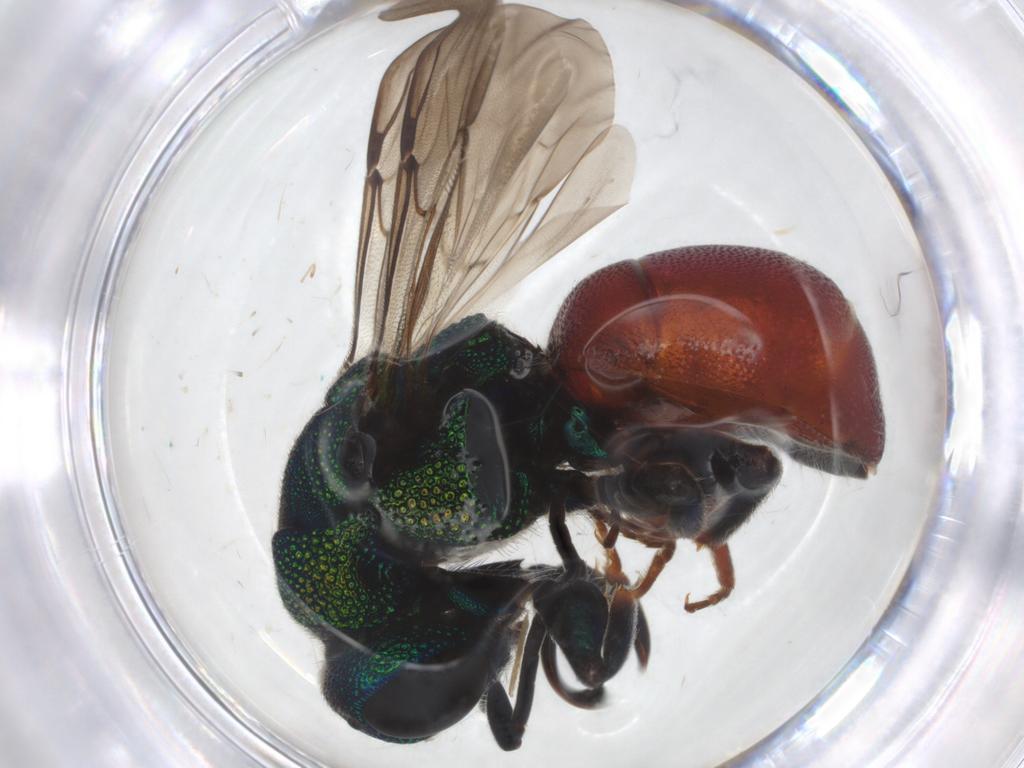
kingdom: Animalia
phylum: Arthropoda
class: Insecta
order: Hymenoptera
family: Chrysididae
